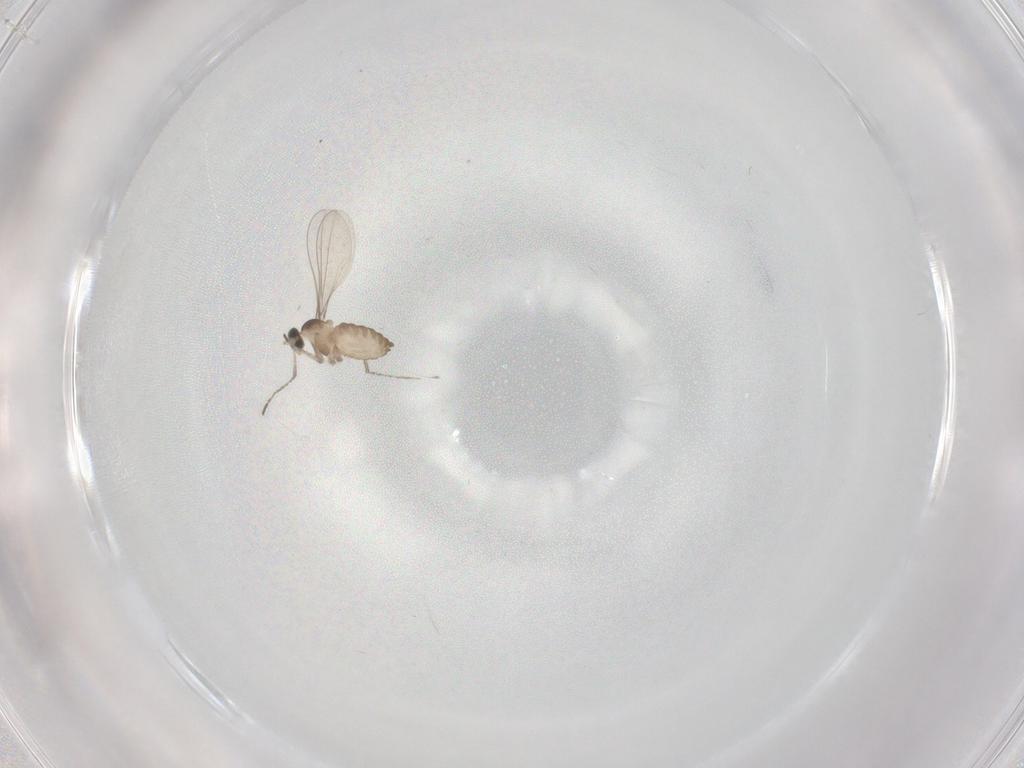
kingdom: Animalia
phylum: Arthropoda
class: Insecta
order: Diptera
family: Cecidomyiidae
